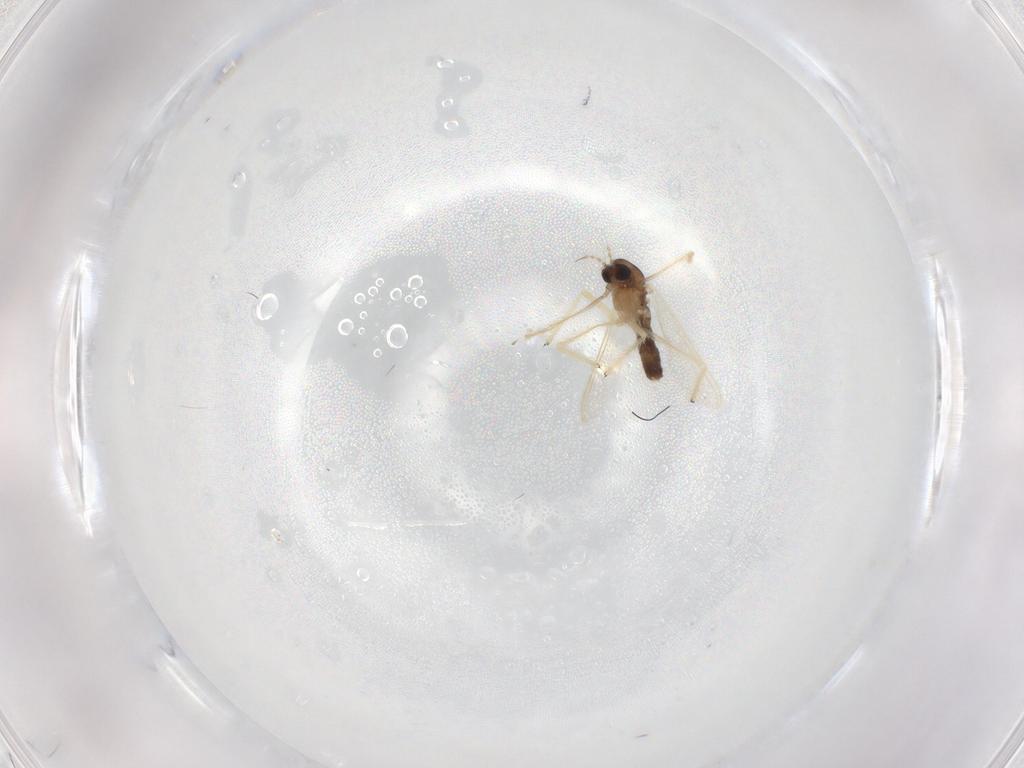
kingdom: Animalia
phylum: Arthropoda
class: Insecta
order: Diptera
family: Chironomidae
